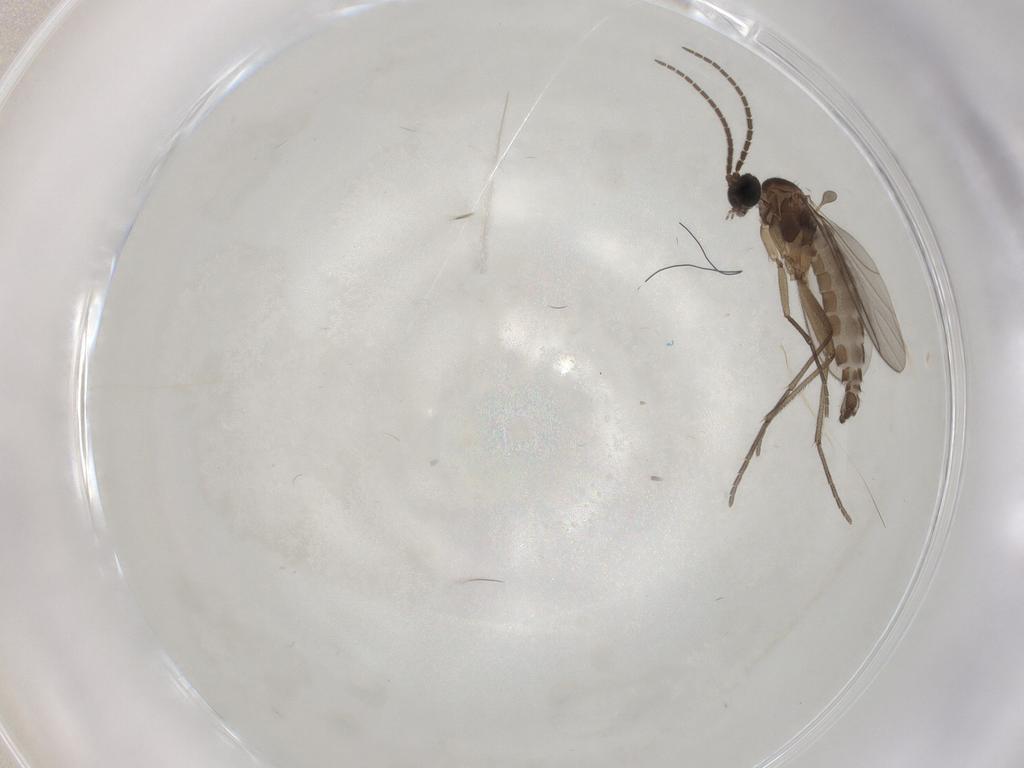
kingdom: Animalia
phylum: Arthropoda
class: Insecta
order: Diptera
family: Sciaridae
